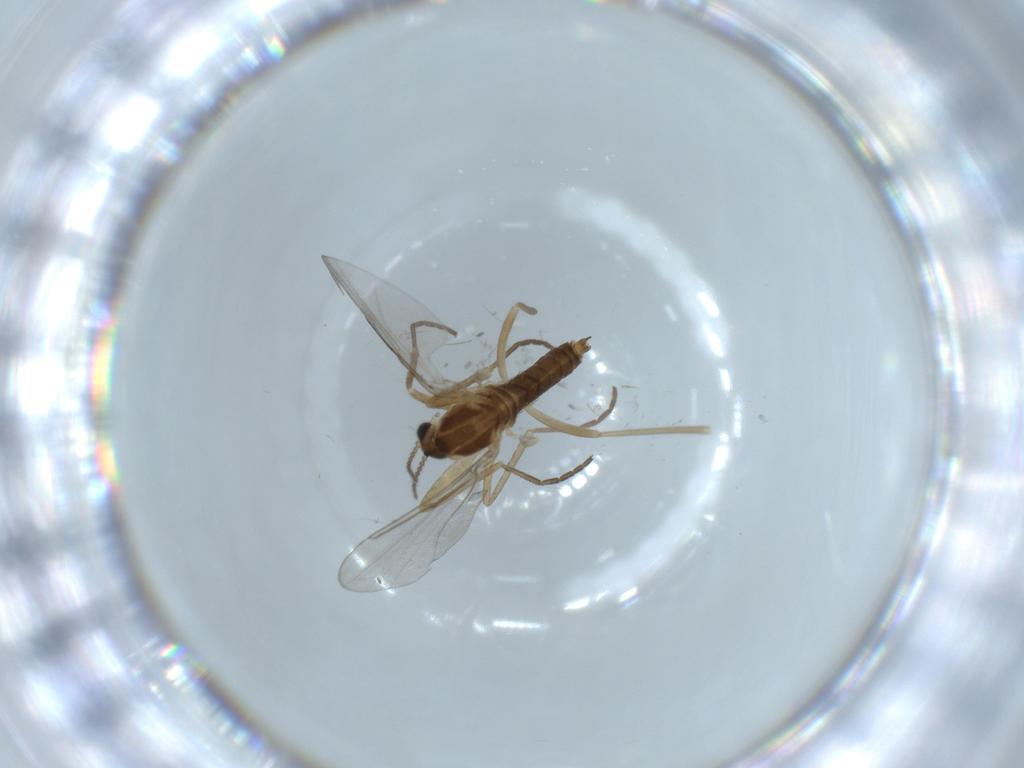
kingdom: Animalia
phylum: Arthropoda
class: Insecta
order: Diptera
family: Cecidomyiidae
